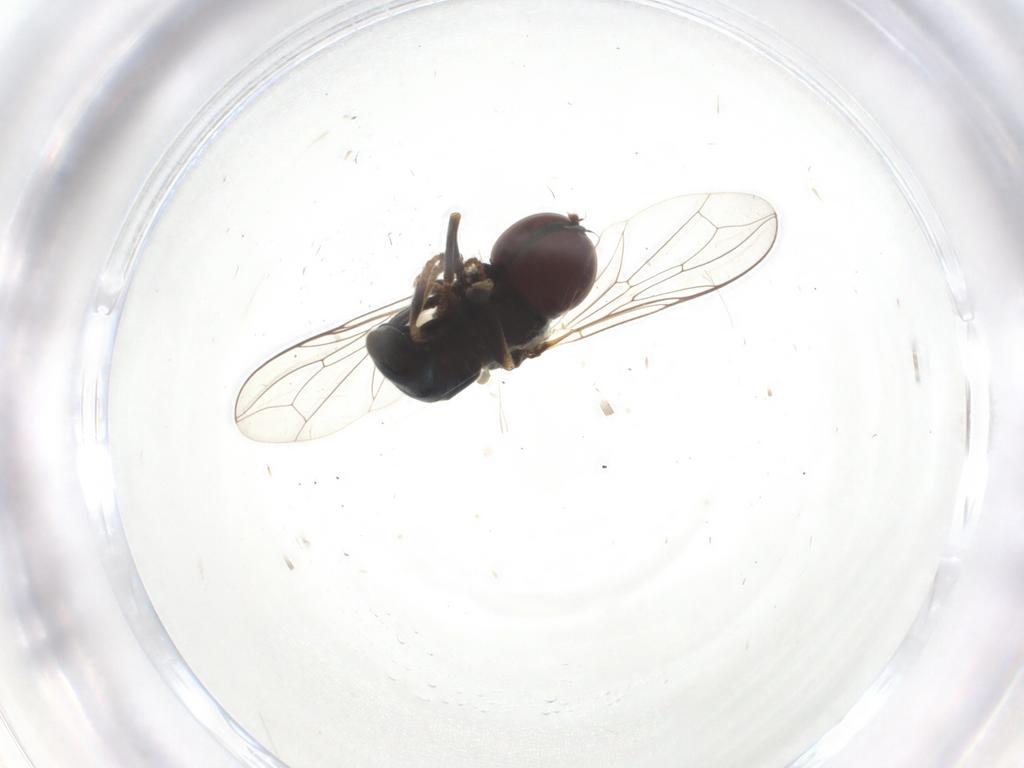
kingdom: Animalia
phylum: Arthropoda
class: Insecta
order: Diptera
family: Pipunculidae
